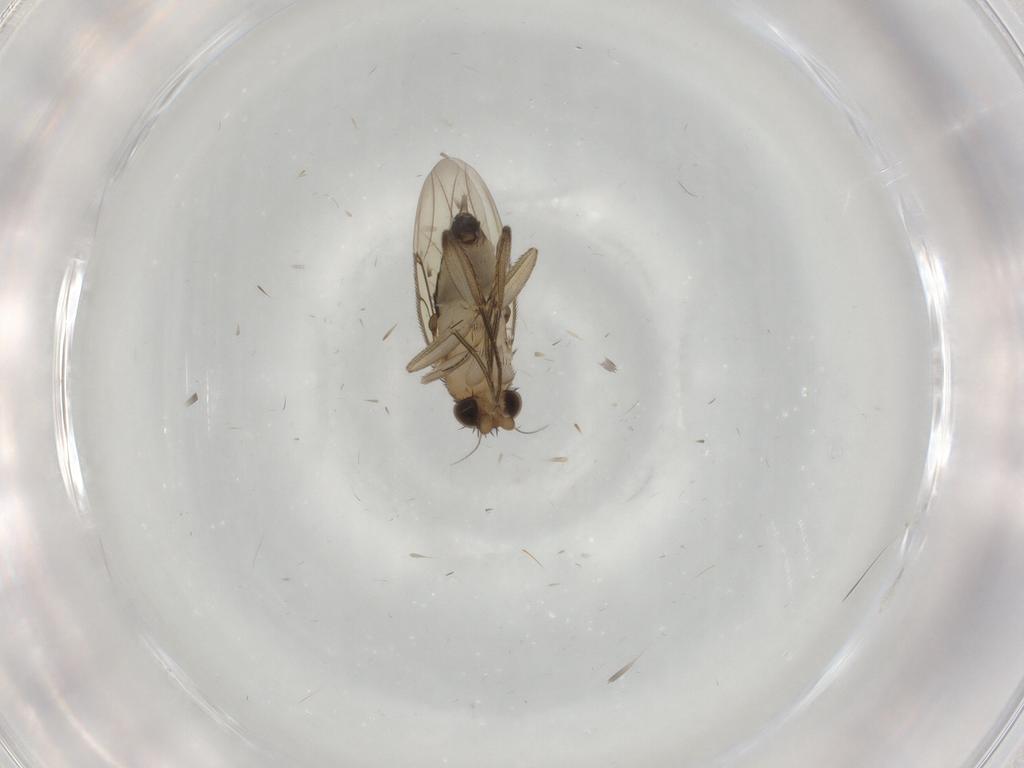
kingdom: Animalia
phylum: Arthropoda
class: Insecta
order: Diptera
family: Phoridae
